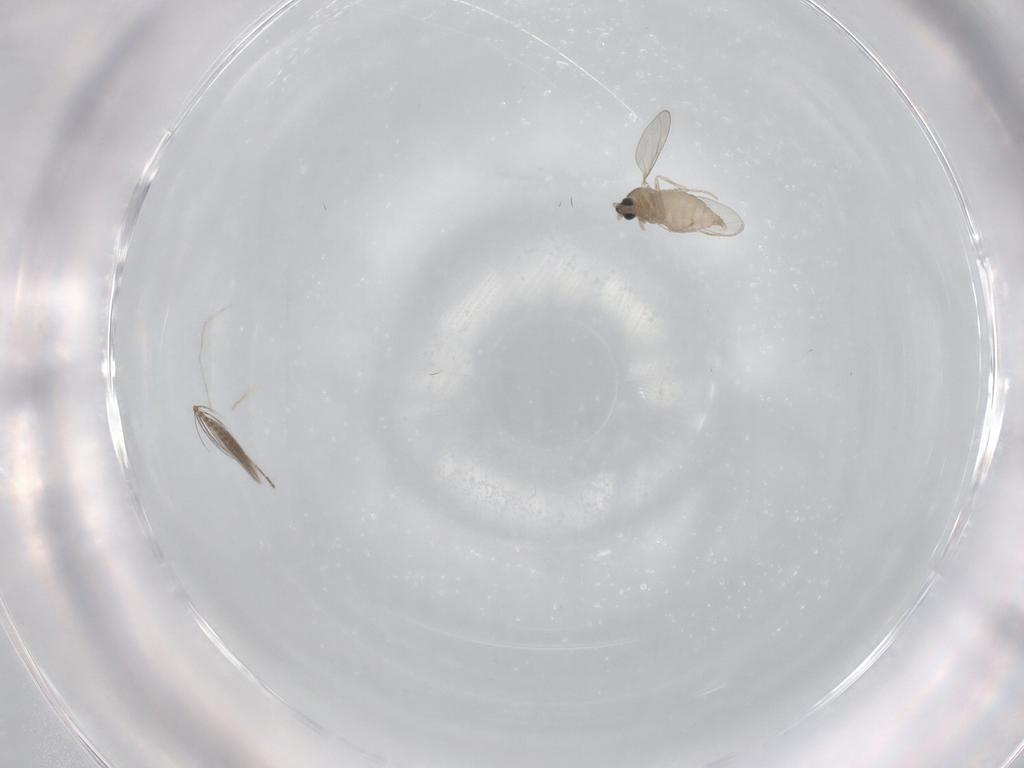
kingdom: Animalia
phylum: Arthropoda
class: Insecta
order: Diptera
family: Cecidomyiidae
